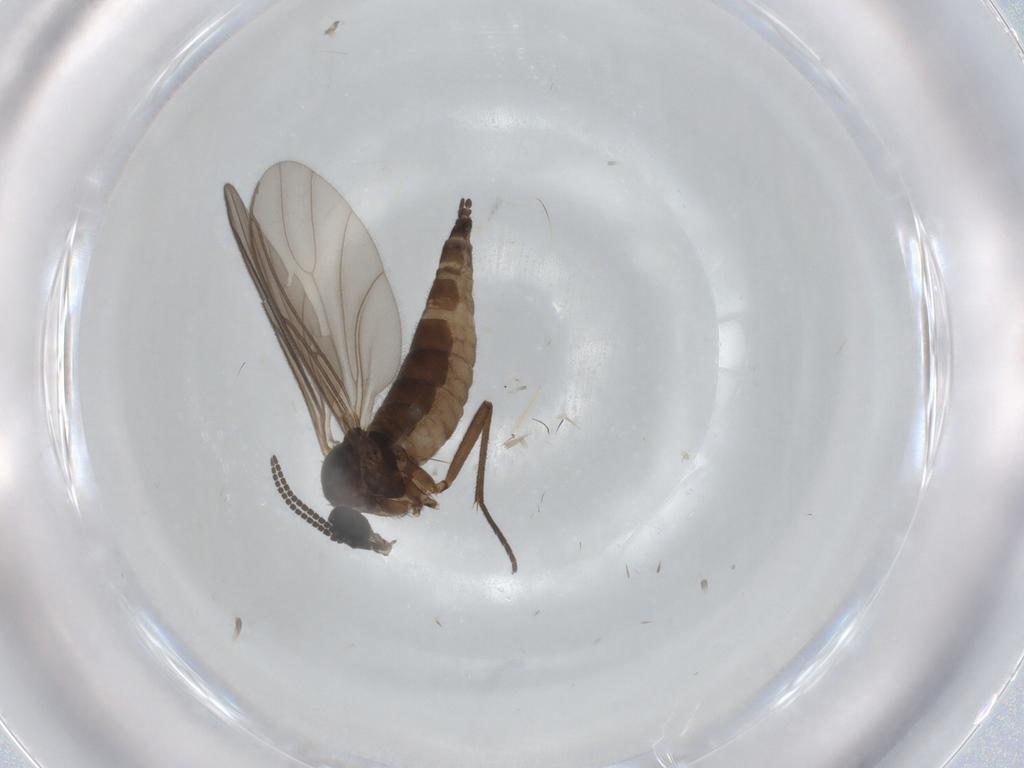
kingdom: Animalia
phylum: Arthropoda
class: Insecta
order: Diptera
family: Sciaridae
